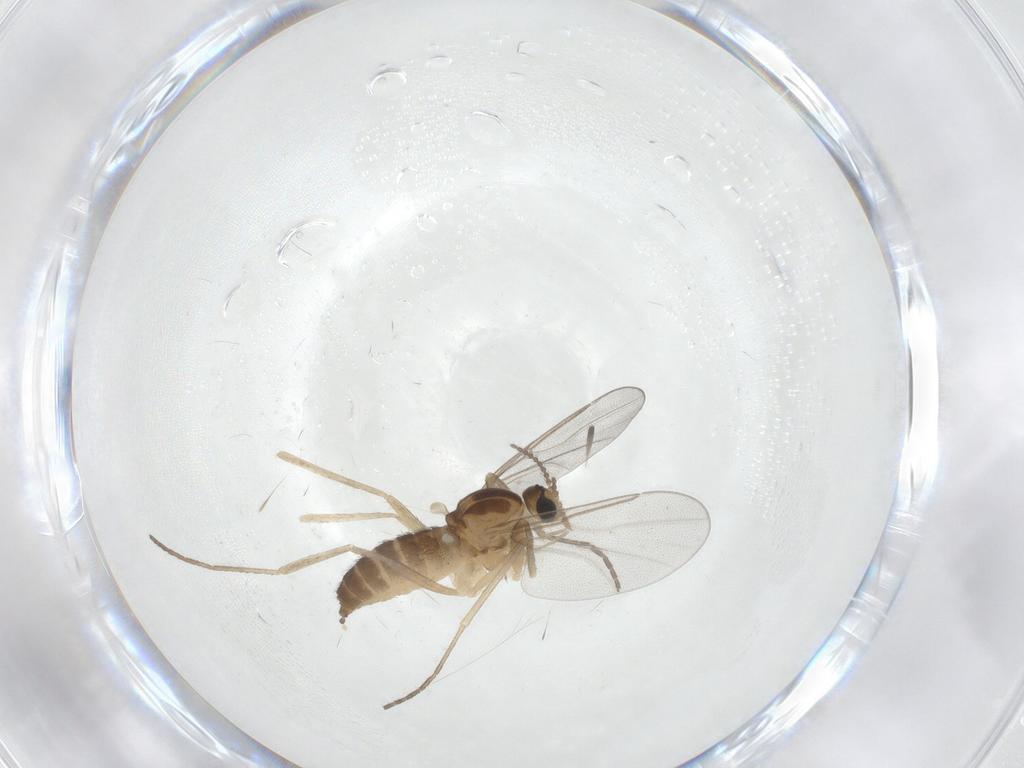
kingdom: Animalia
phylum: Arthropoda
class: Insecta
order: Diptera
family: Cecidomyiidae
